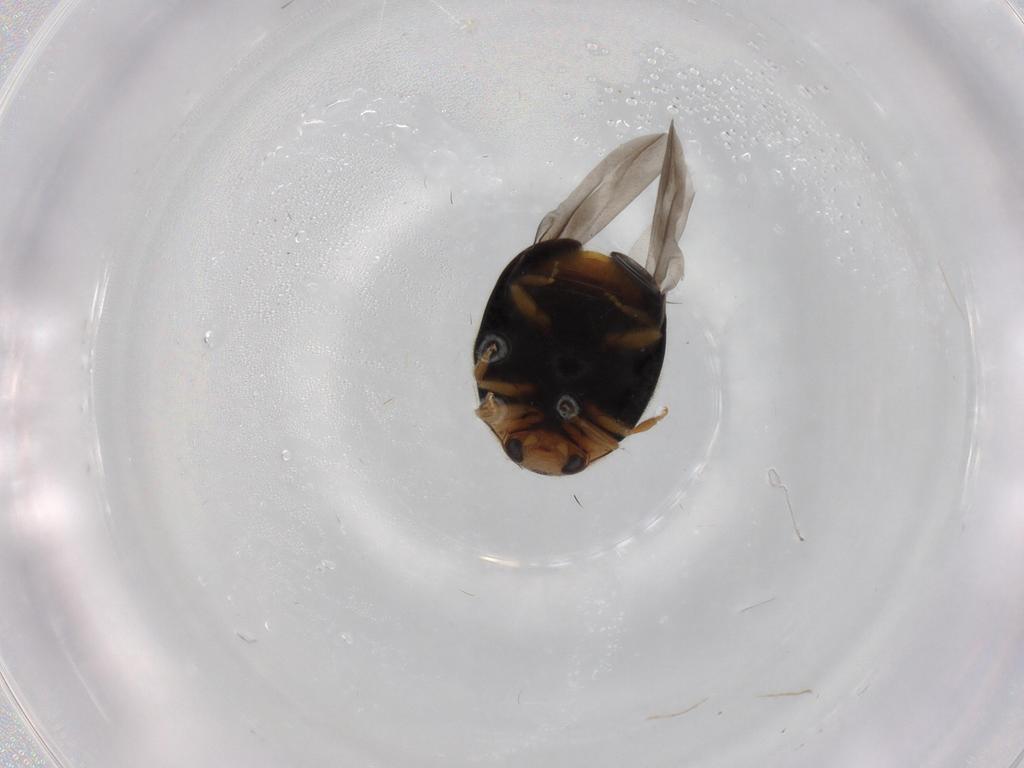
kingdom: Animalia
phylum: Arthropoda
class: Insecta
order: Coleoptera
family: Coccinellidae
